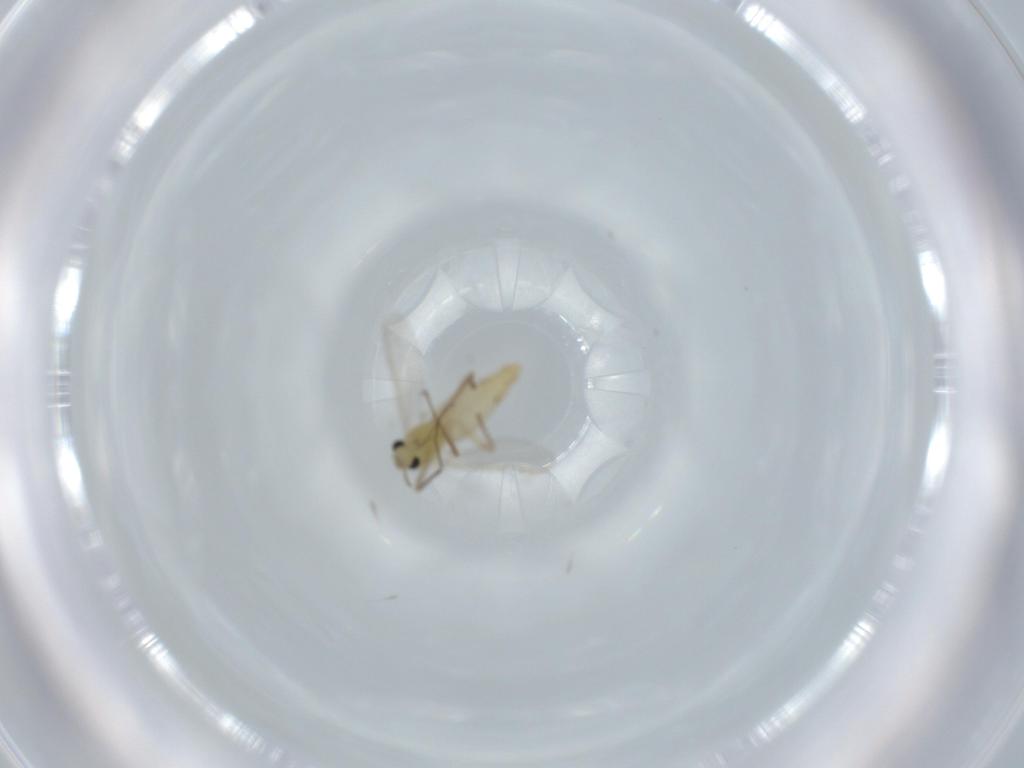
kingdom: Animalia
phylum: Arthropoda
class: Insecta
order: Diptera
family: Chironomidae
